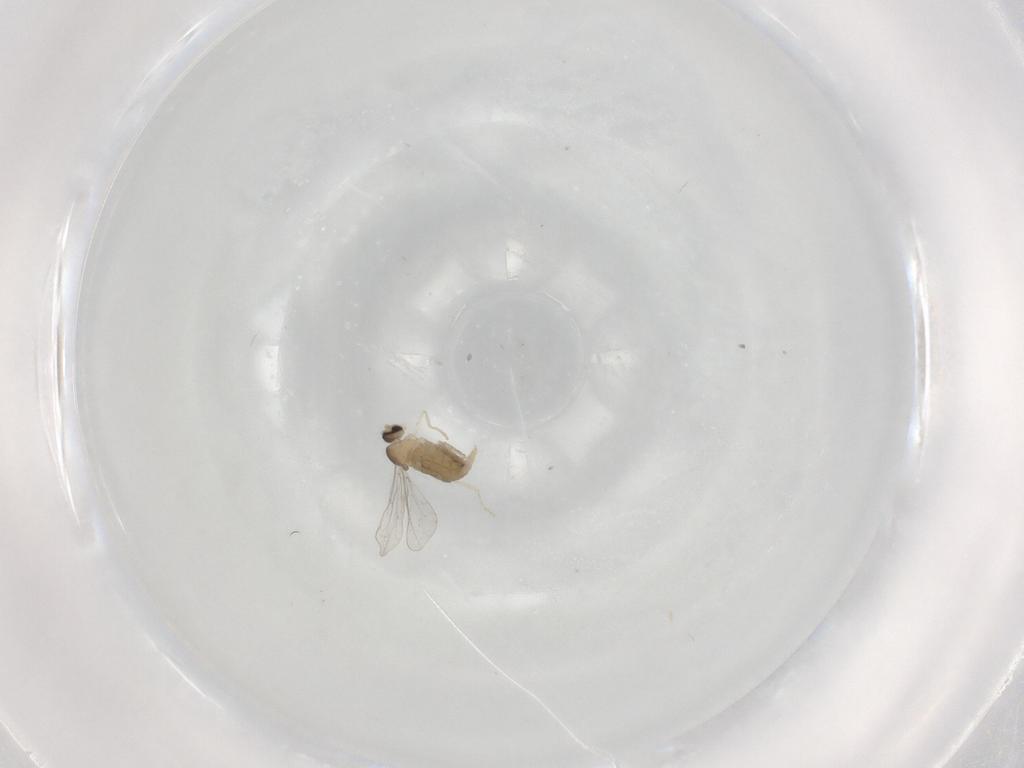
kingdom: Animalia
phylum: Arthropoda
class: Insecta
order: Diptera
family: Cecidomyiidae
